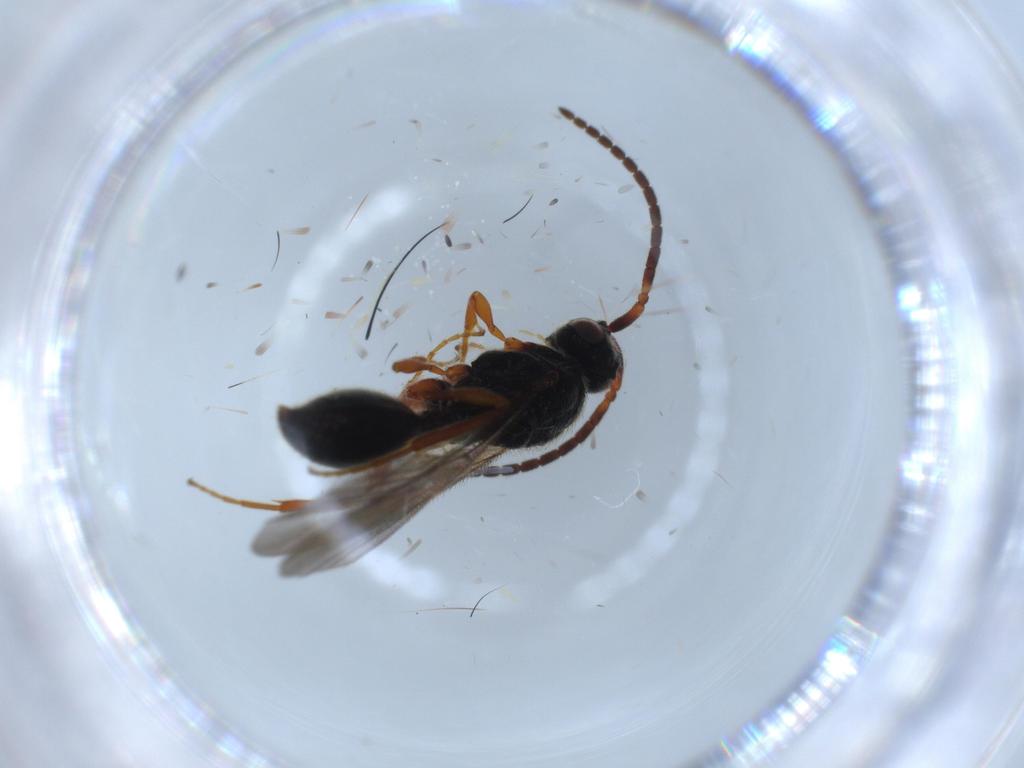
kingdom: Animalia
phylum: Arthropoda
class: Insecta
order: Hymenoptera
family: Diapriidae
